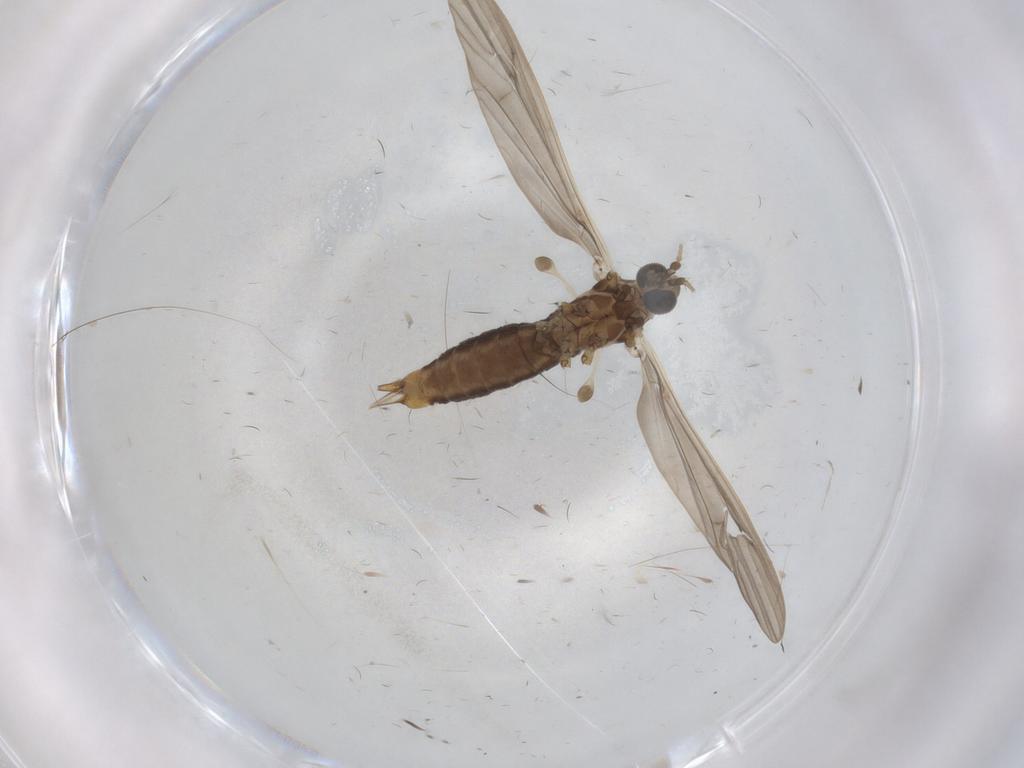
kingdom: Animalia
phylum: Arthropoda
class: Insecta
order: Diptera
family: Limoniidae
